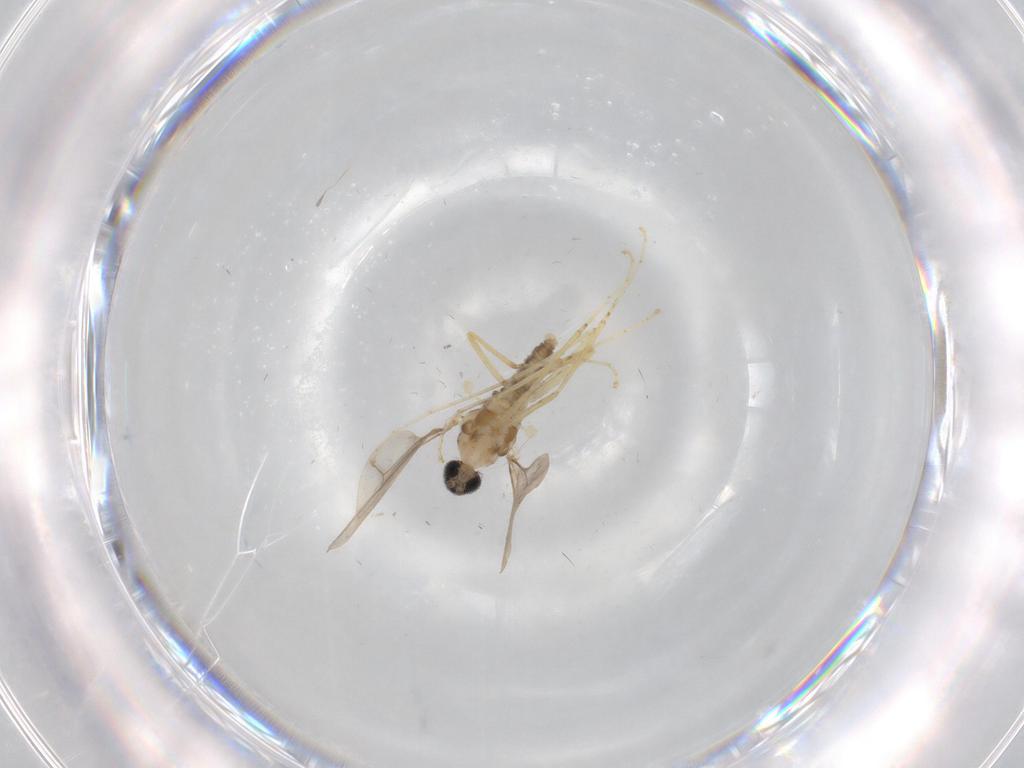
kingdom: Animalia
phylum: Arthropoda
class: Insecta
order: Diptera
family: Cecidomyiidae
